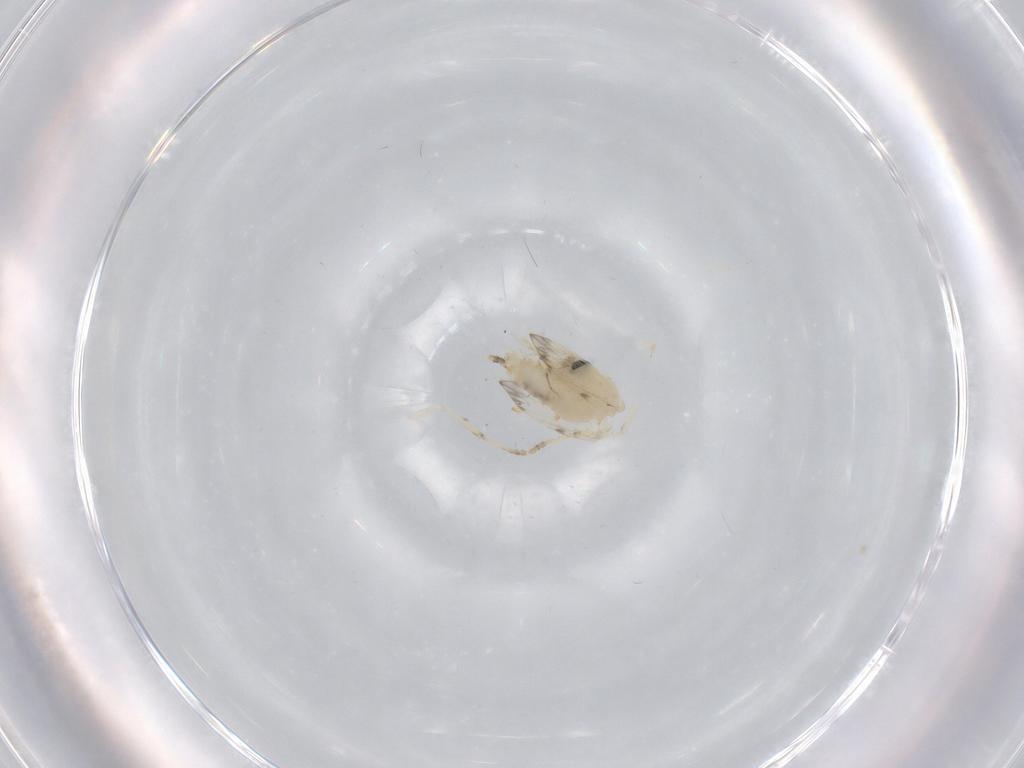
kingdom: Animalia
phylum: Arthropoda
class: Insecta
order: Diptera
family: Psychodidae
